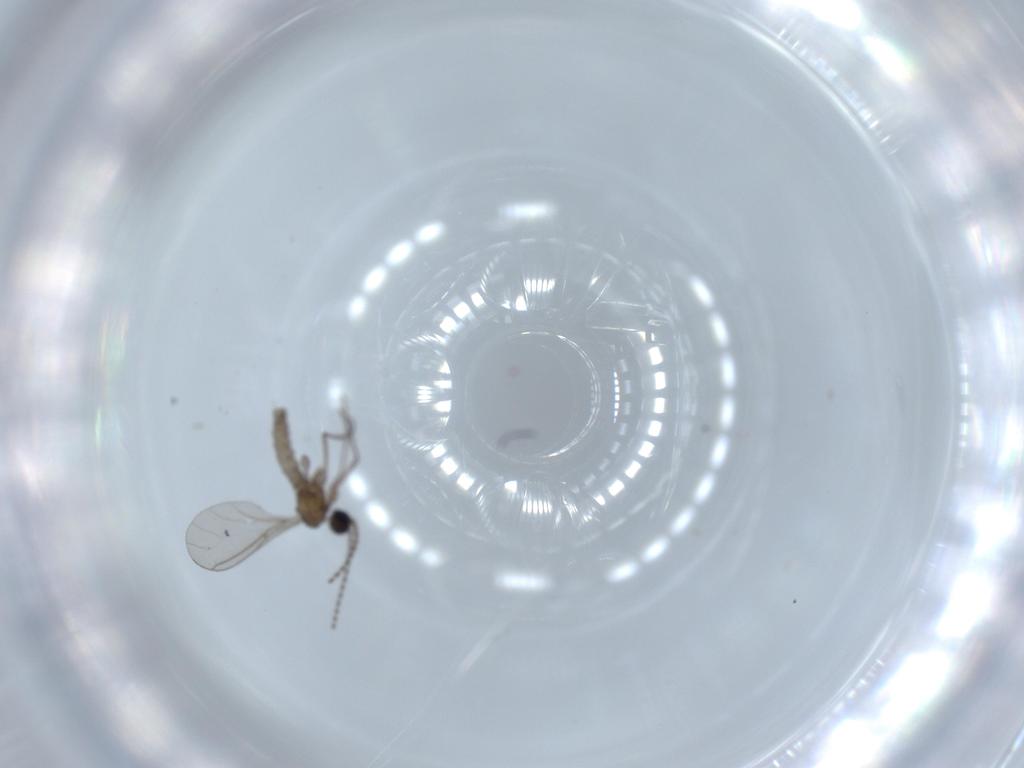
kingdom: Animalia
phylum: Arthropoda
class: Insecta
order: Diptera
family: Sciaridae
